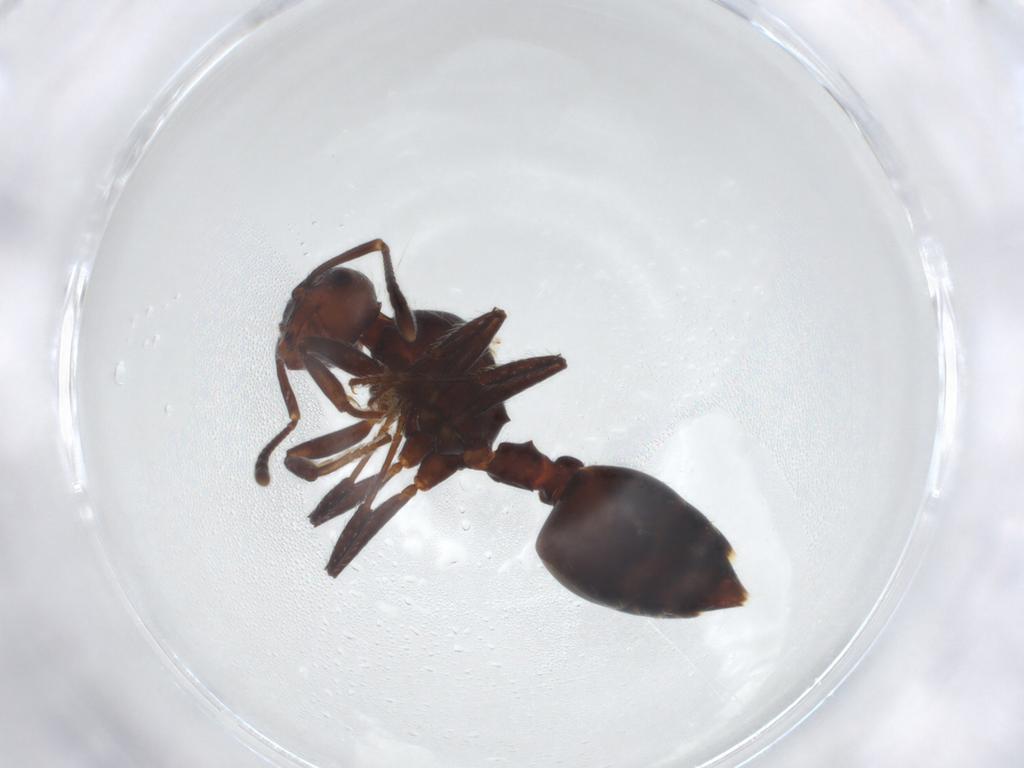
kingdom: Animalia
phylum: Arthropoda
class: Insecta
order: Hymenoptera
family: Formicidae
